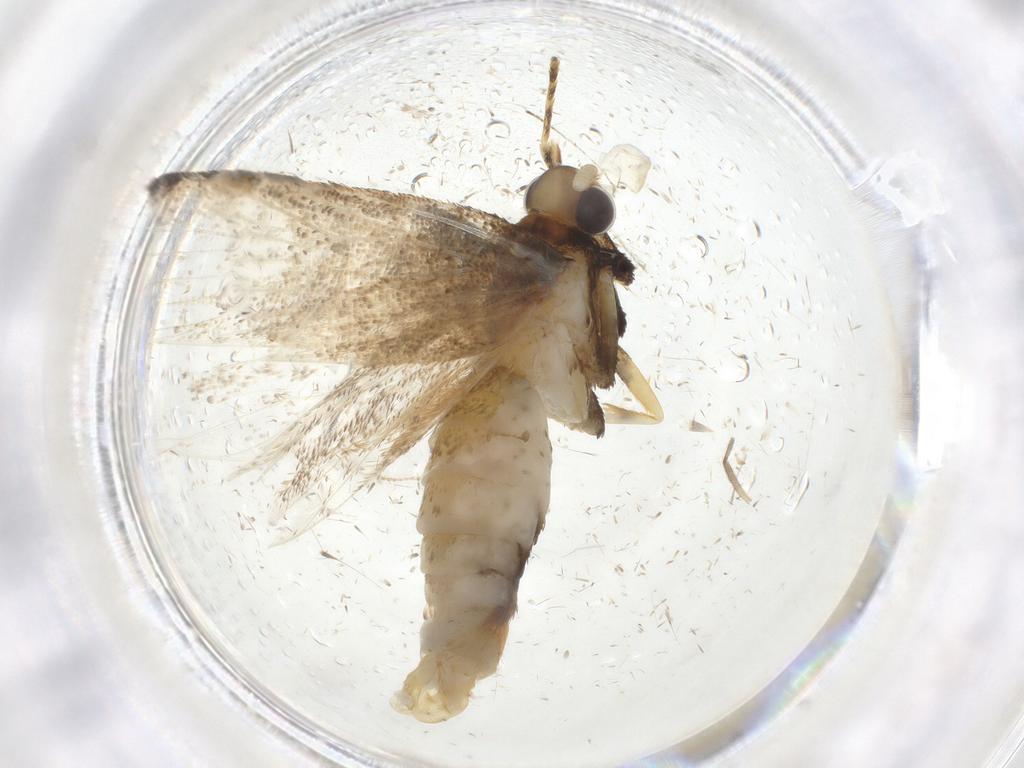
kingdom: Animalia
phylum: Arthropoda
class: Insecta
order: Lepidoptera
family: Lecithoceridae
